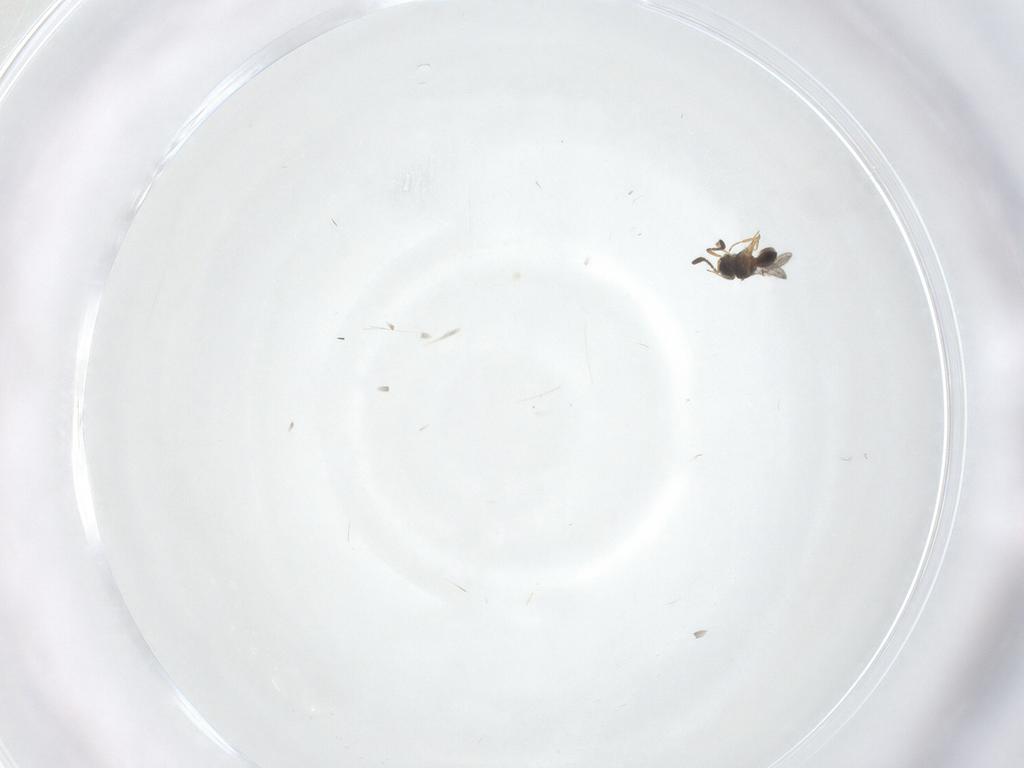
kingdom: Animalia
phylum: Arthropoda
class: Insecta
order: Hymenoptera
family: Scelionidae
